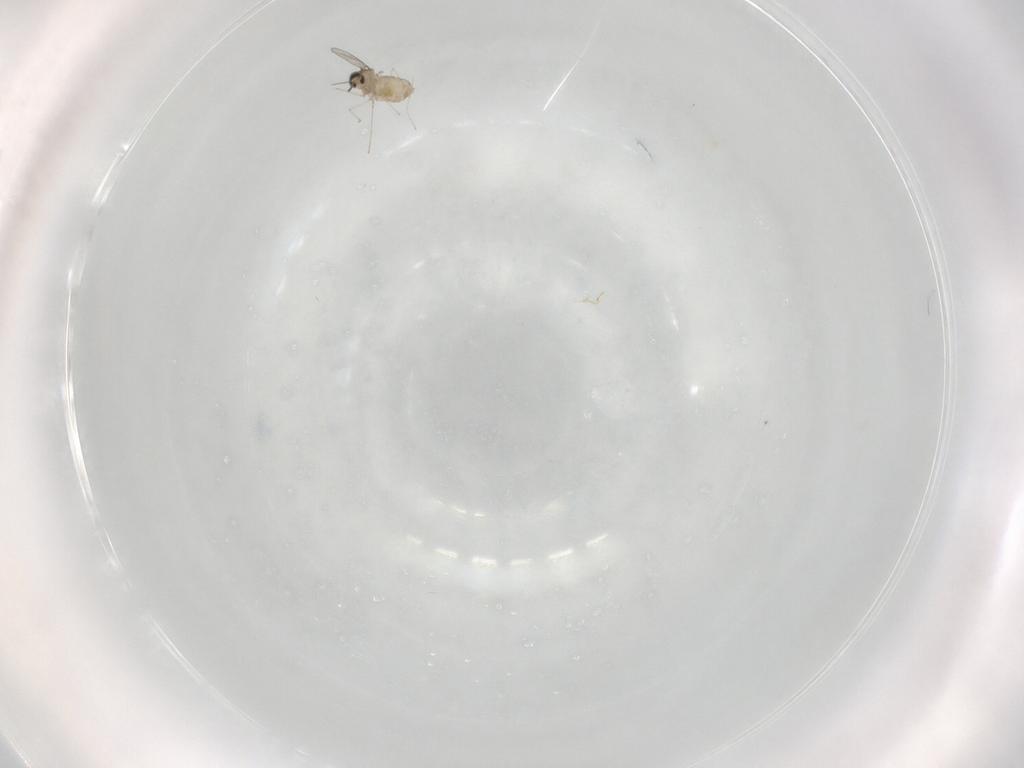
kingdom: Animalia
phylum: Arthropoda
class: Insecta
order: Diptera
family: Cecidomyiidae
